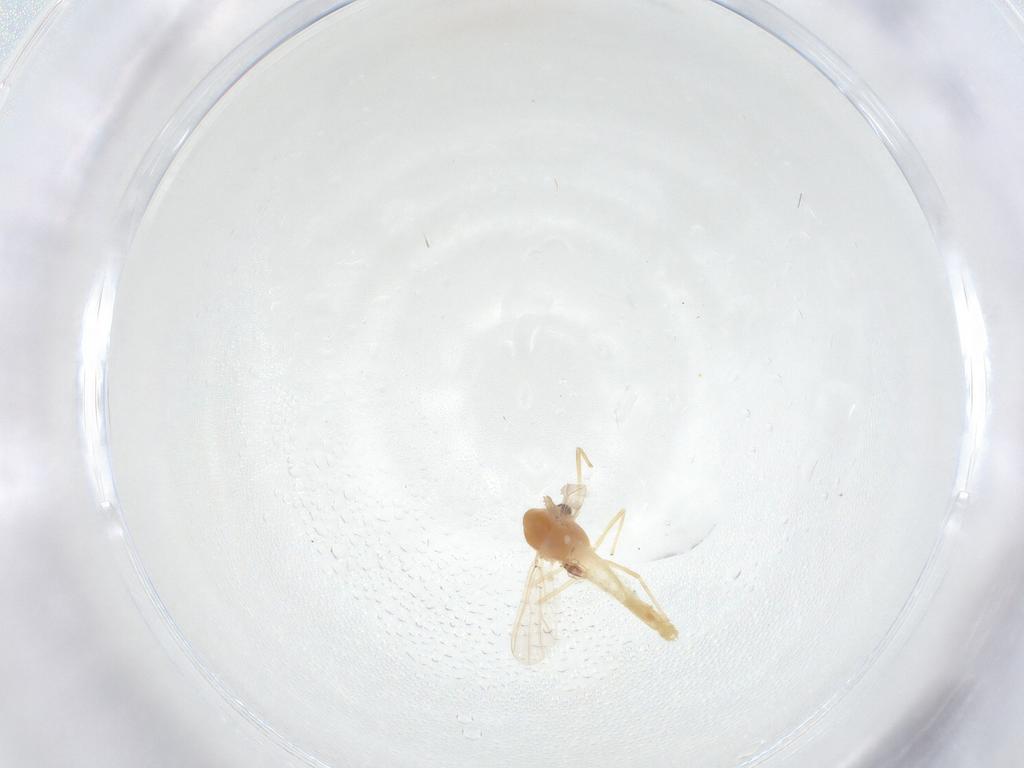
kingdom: Animalia
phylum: Arthropoda
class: Insecta
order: Diptera
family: Chironomidae
